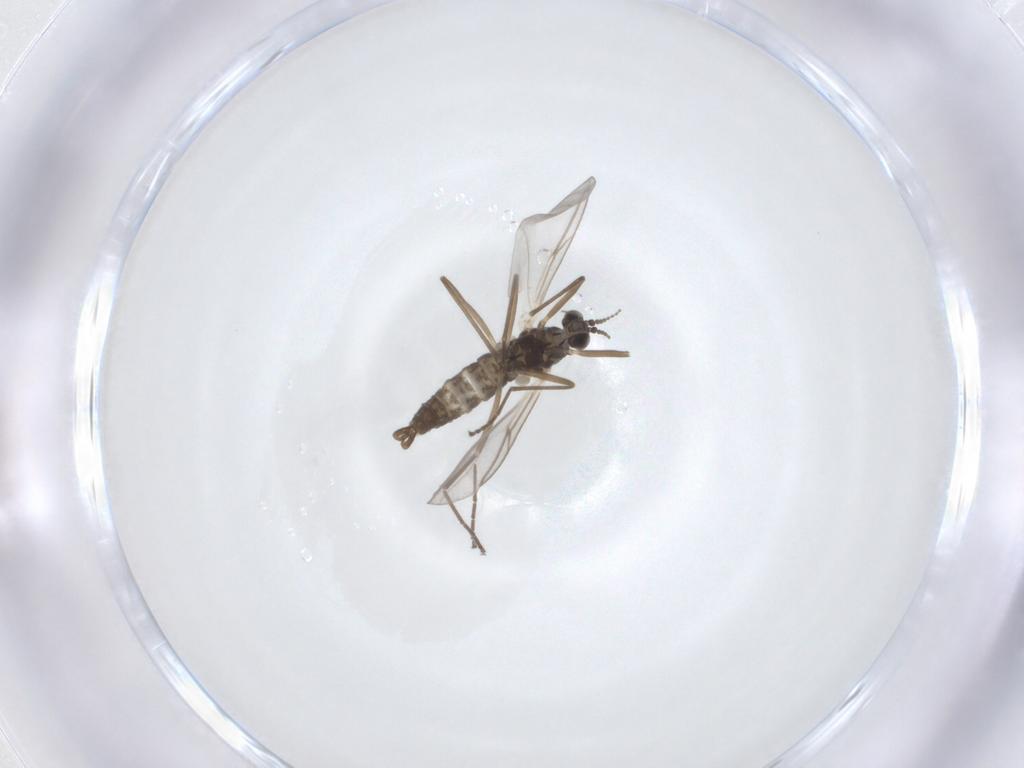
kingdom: Animalia
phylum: Arthropoda
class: Insecta
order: Diptera
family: Cecidomyiidae
